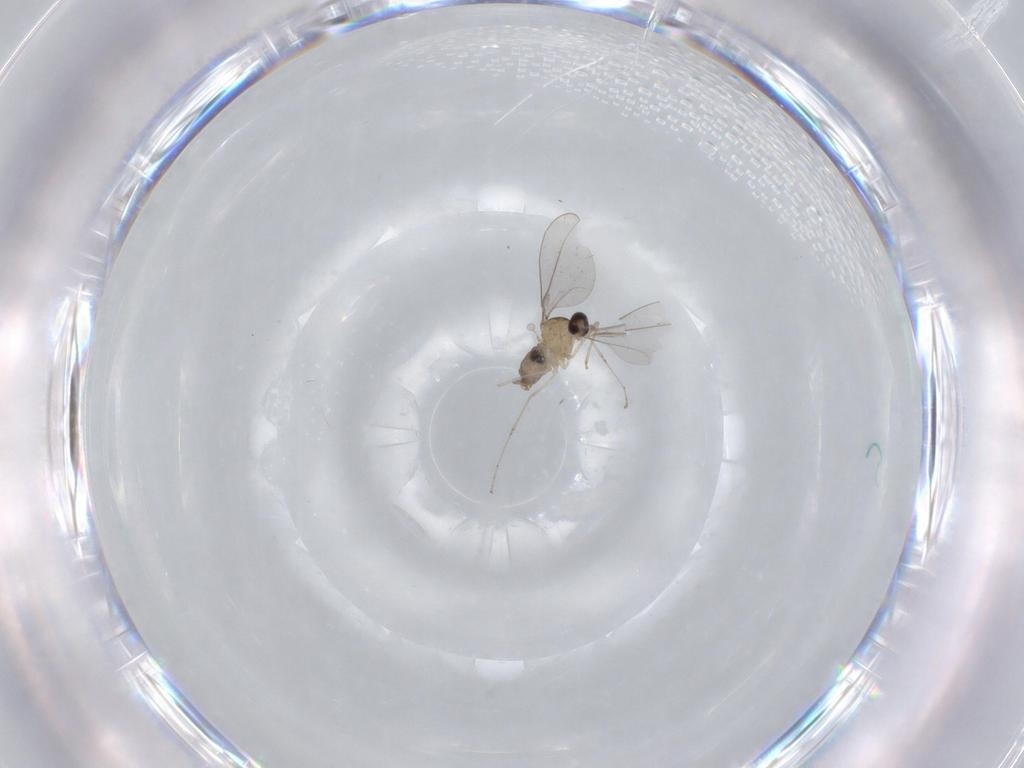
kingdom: Animalia
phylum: Arthropoda
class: Insecta
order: Diptera
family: Cecidomyiidae
